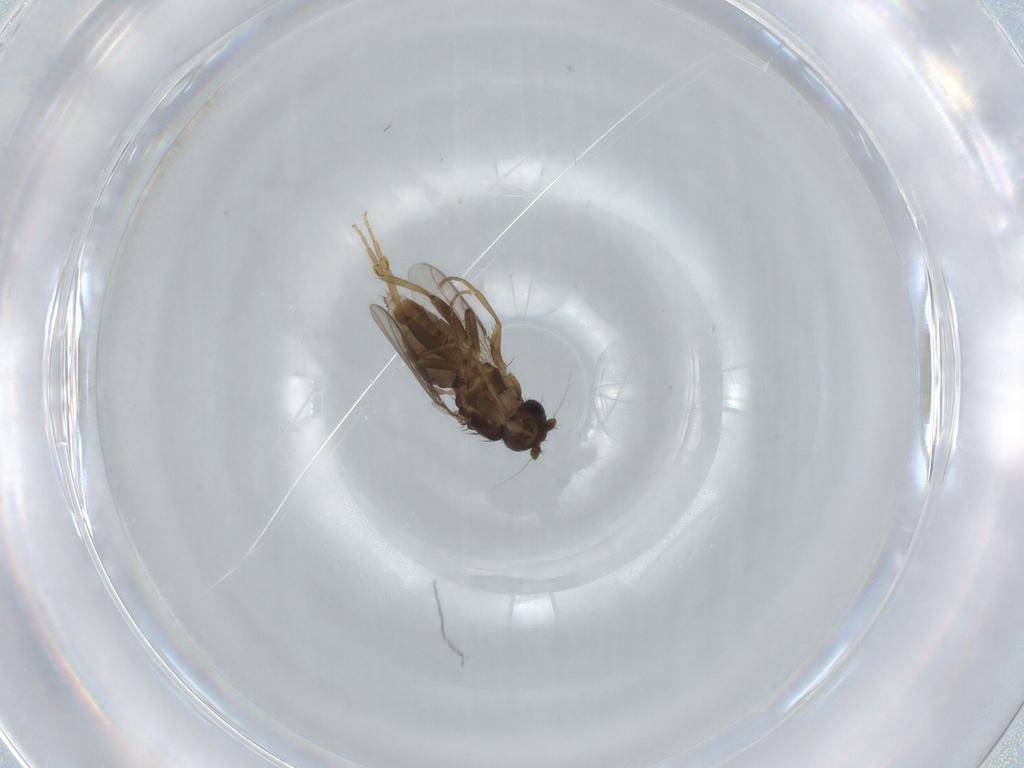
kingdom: Animalia
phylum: Arthropoda
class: Insecta
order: Diptera
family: Sphaeroceridae
